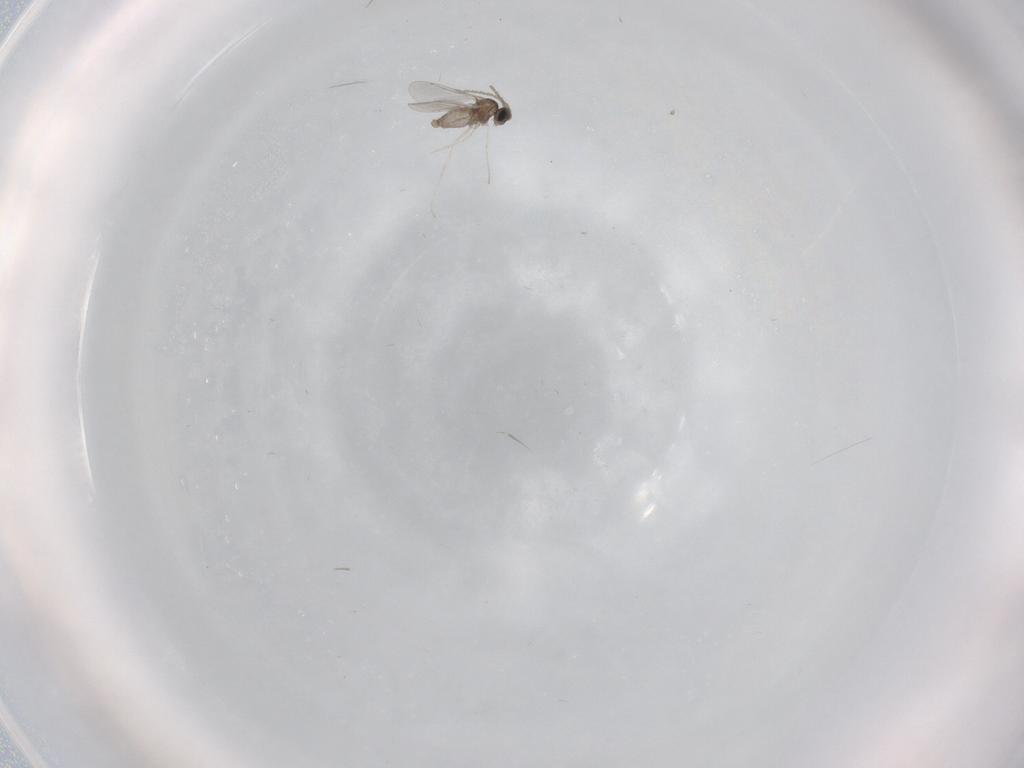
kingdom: Animalia
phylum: Arthropoda
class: Insecta
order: Diptera
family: Cecidomyiidae
